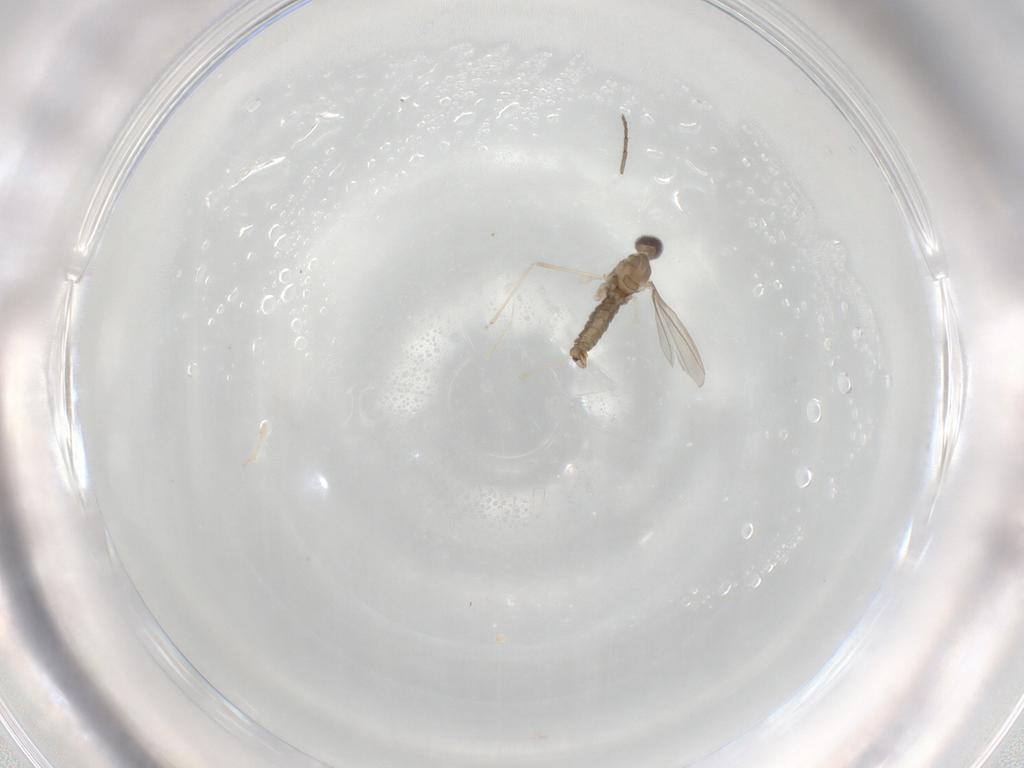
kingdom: Animalia
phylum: Arthropoda
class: Insecta
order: Diptera
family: Cecidomyiidae
